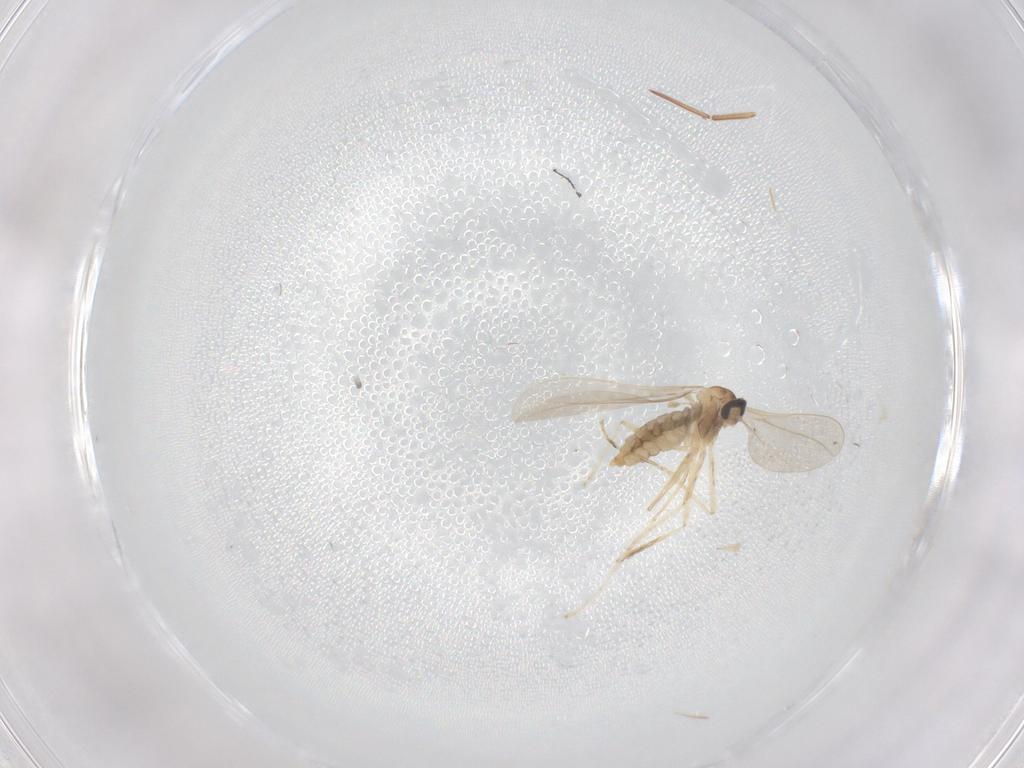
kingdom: Animalia
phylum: Arthropoda
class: Insecta
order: Diptera
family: Cecidomyiidae
